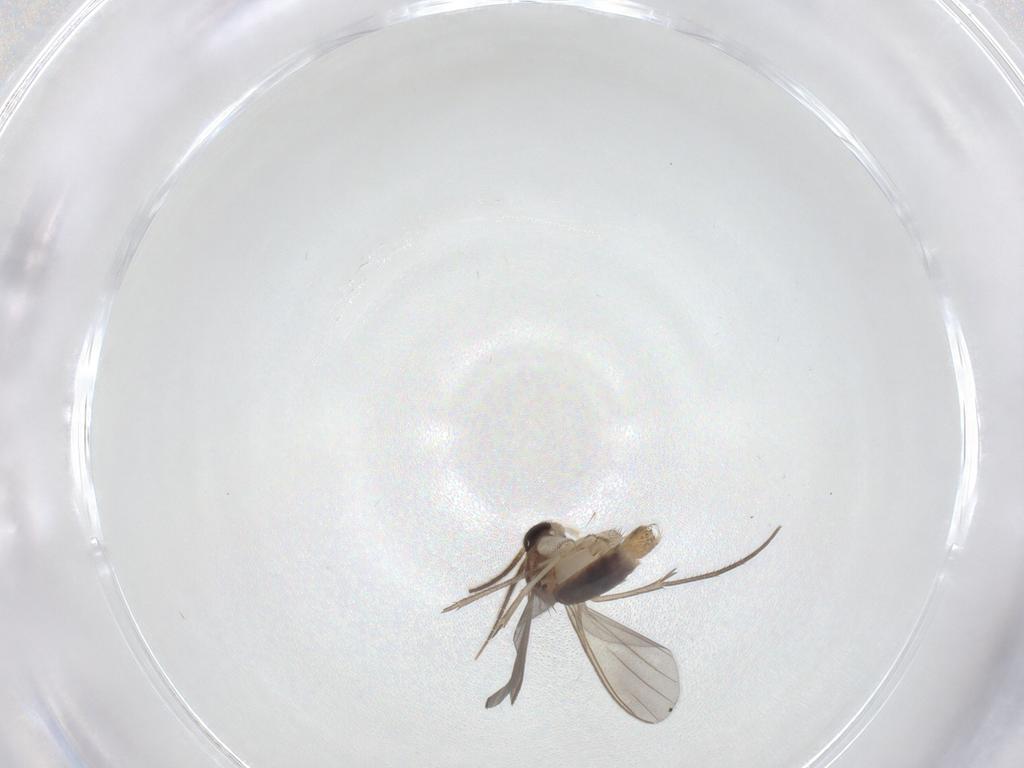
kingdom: Animalia
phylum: Arthropoda
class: Insecta
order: Diptera
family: Mycetophilidae
